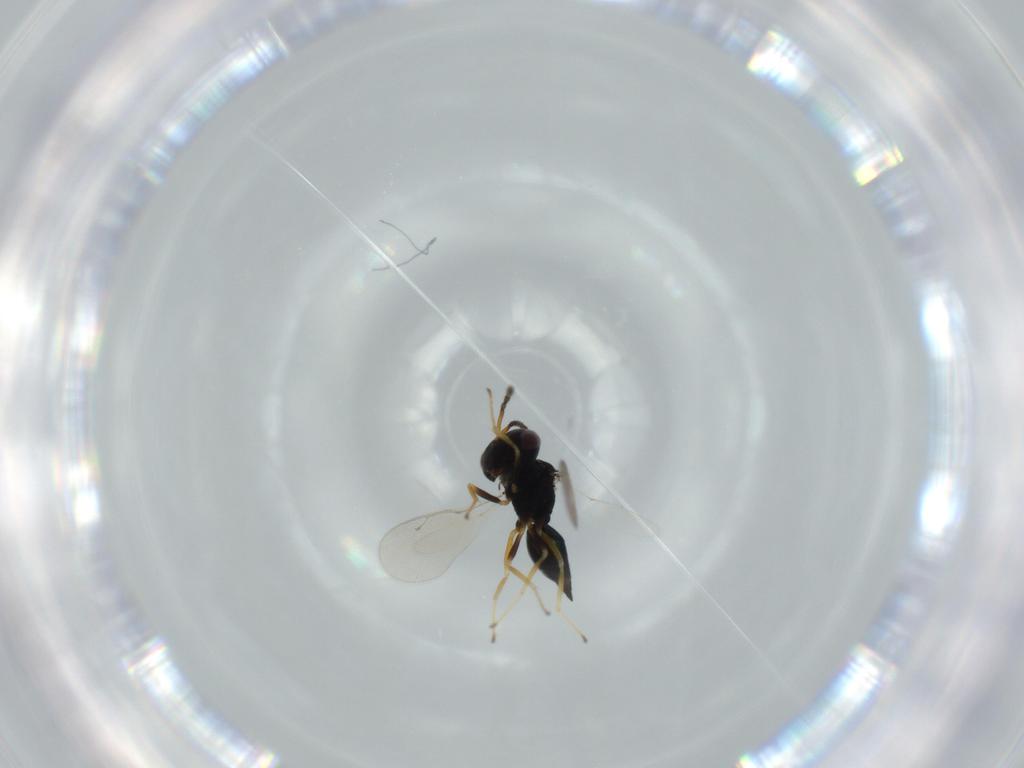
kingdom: Animalia
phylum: Arthropoda
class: Insecta
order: Hymenoptera
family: Pteromalidae
